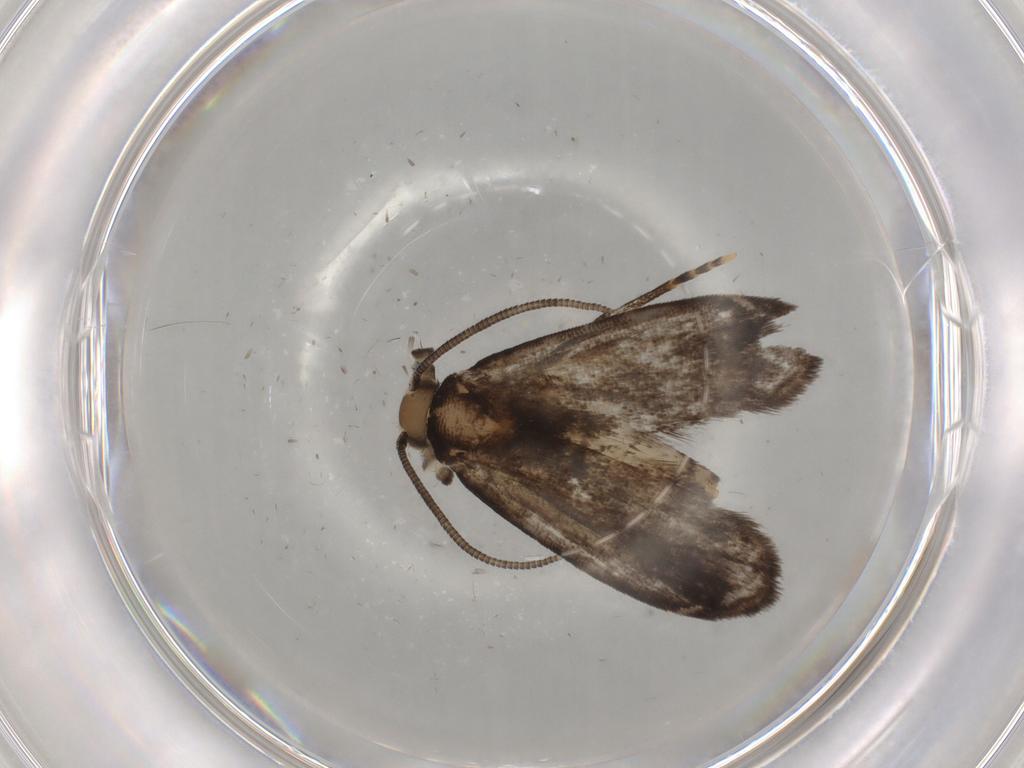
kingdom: Animalia
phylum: Arthropoda
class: Insecta
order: Lepidoptera
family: Dryadaulidae
